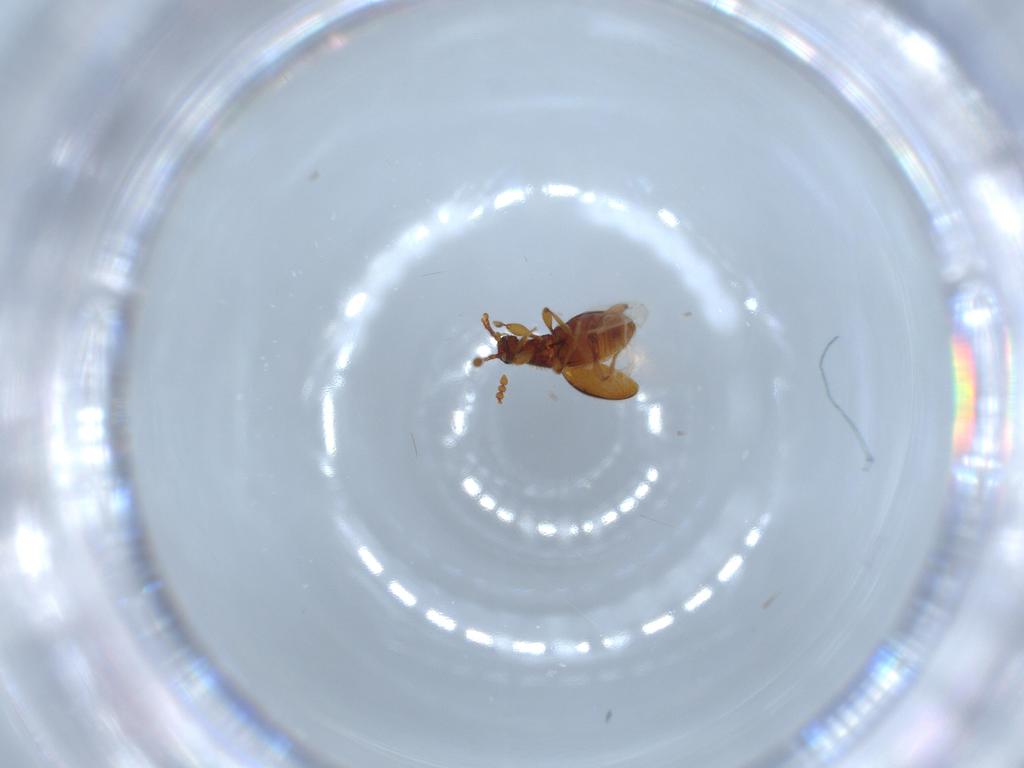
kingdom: Animalia
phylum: Arthropoda
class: Insecta
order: Coleoptera
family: Staphylinidae
